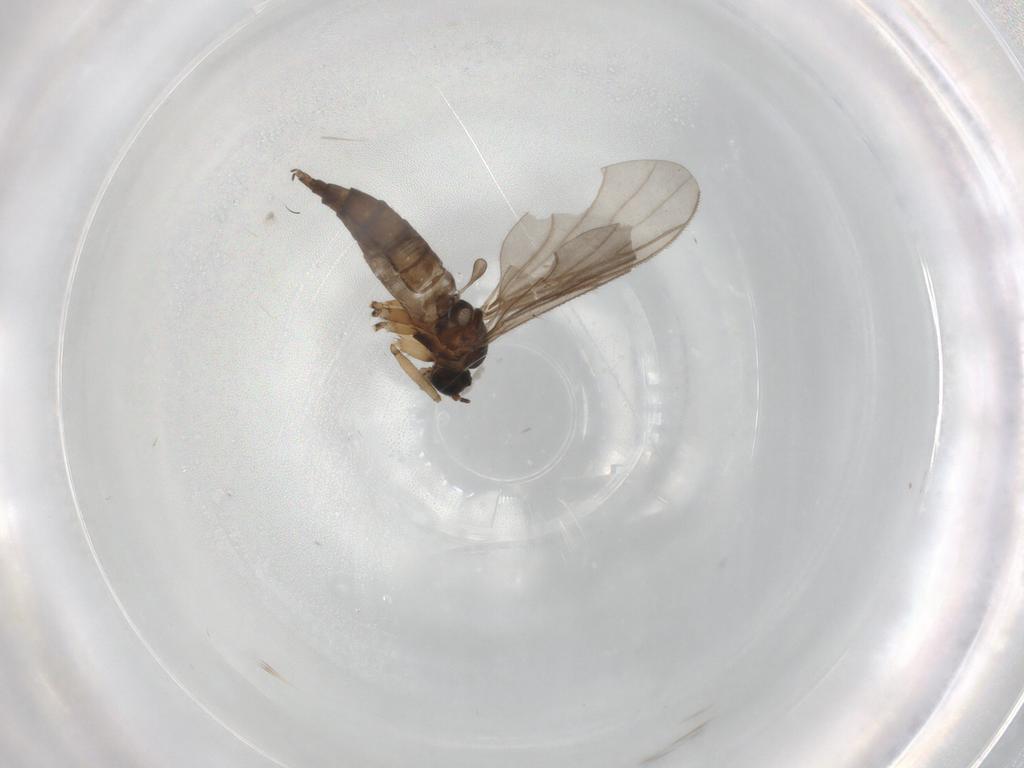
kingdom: Animalia
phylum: Arthropoda
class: Insecta
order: Diptera
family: Sciaridae
